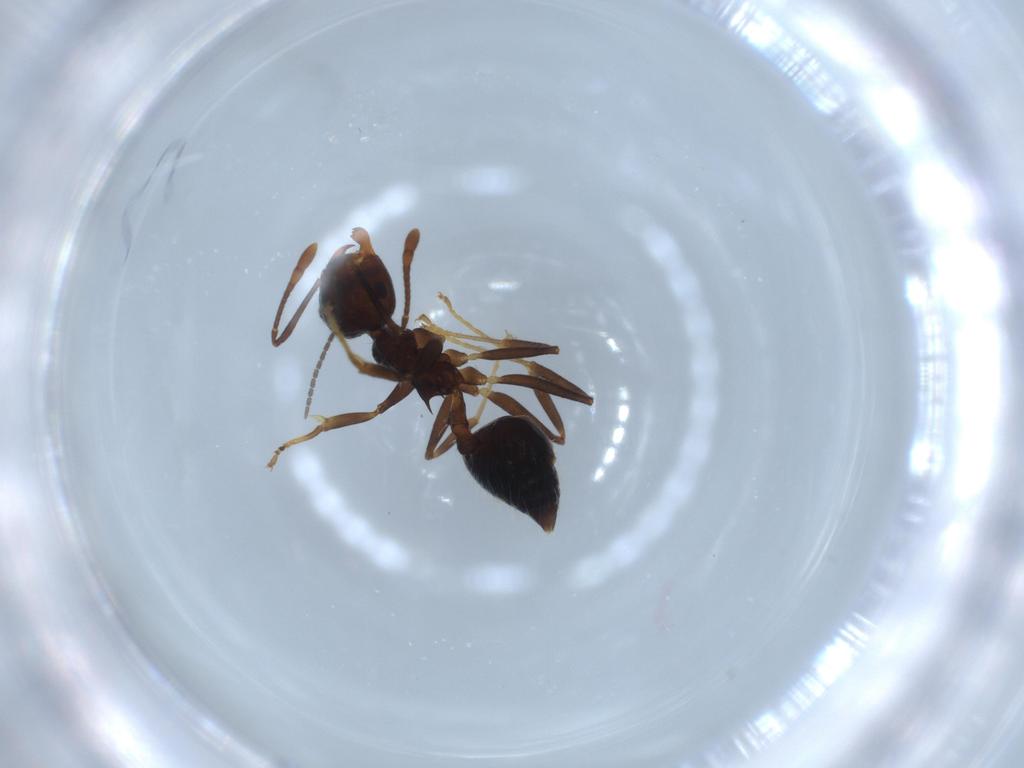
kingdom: Animalia
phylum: Arthropoda
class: Insecta
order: Hymenoptera
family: Formicidae
